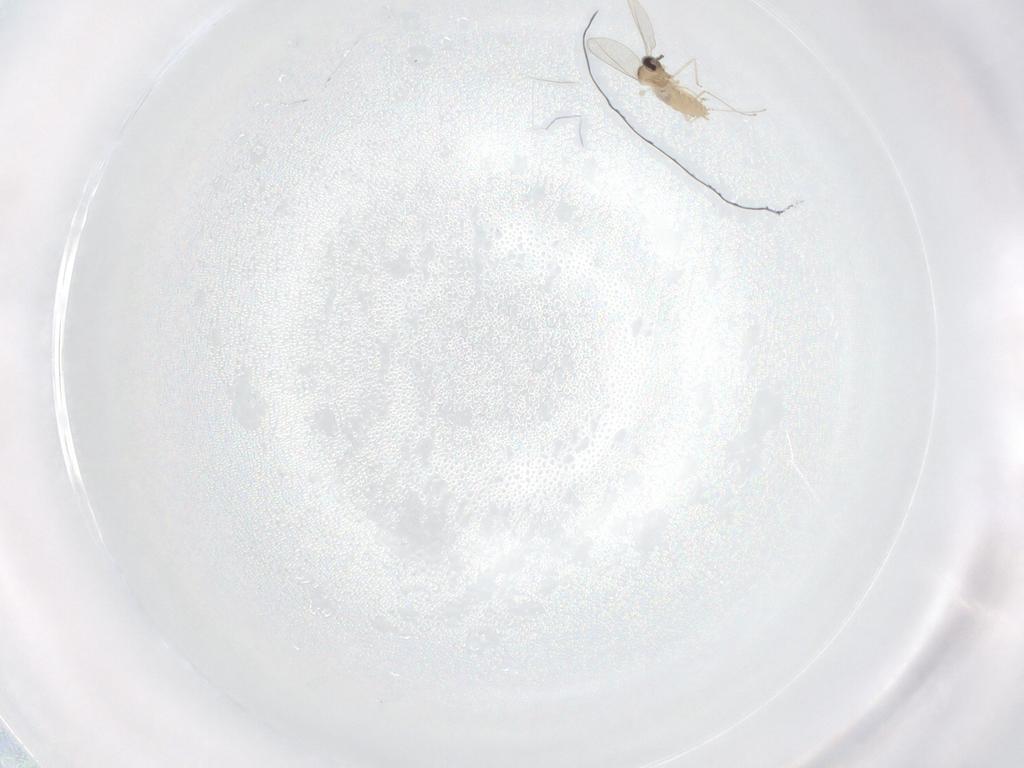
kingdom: Animalia
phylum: Arthropoda
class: Insecta
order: Diptera
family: Cecidomyiidae
